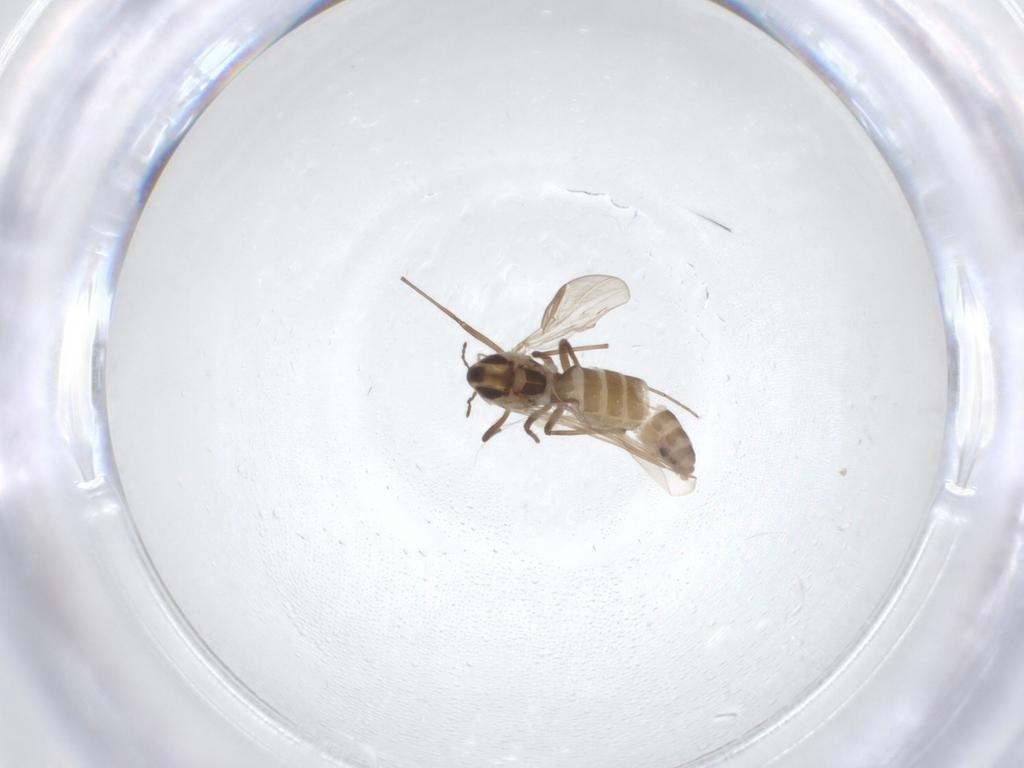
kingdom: Animalia
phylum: Arthropoda
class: Insecta
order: Diptera
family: Chironomidae
